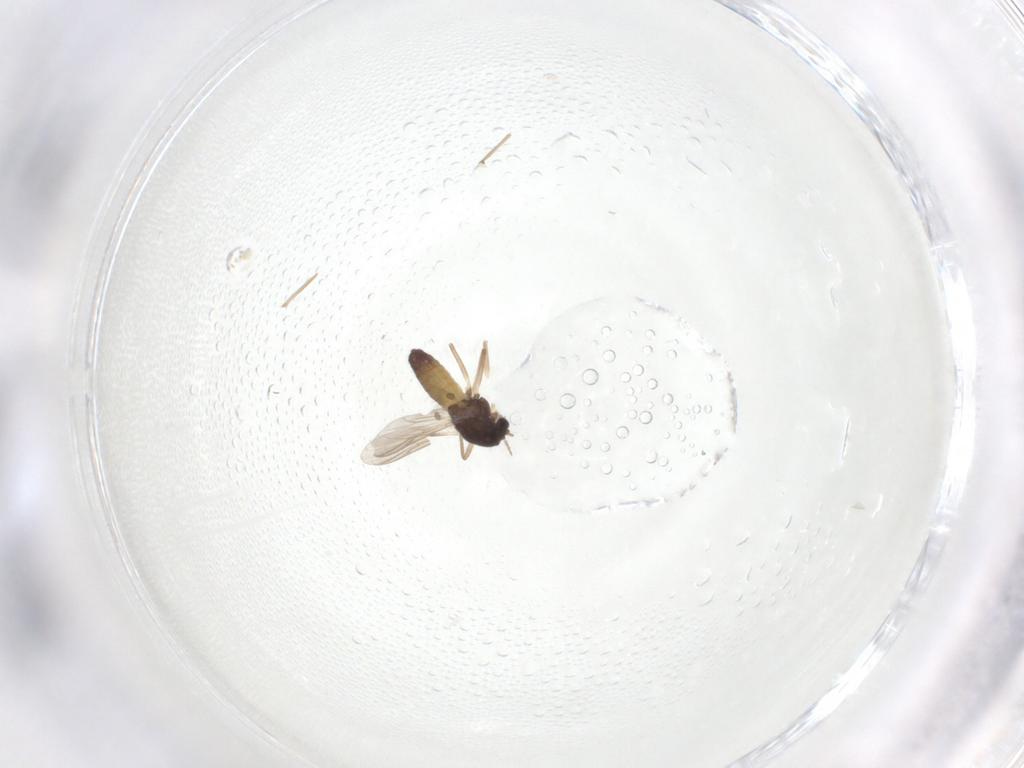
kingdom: Animalia
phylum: Arthropoda
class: Insecta
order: Diptera
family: Chironomidae
